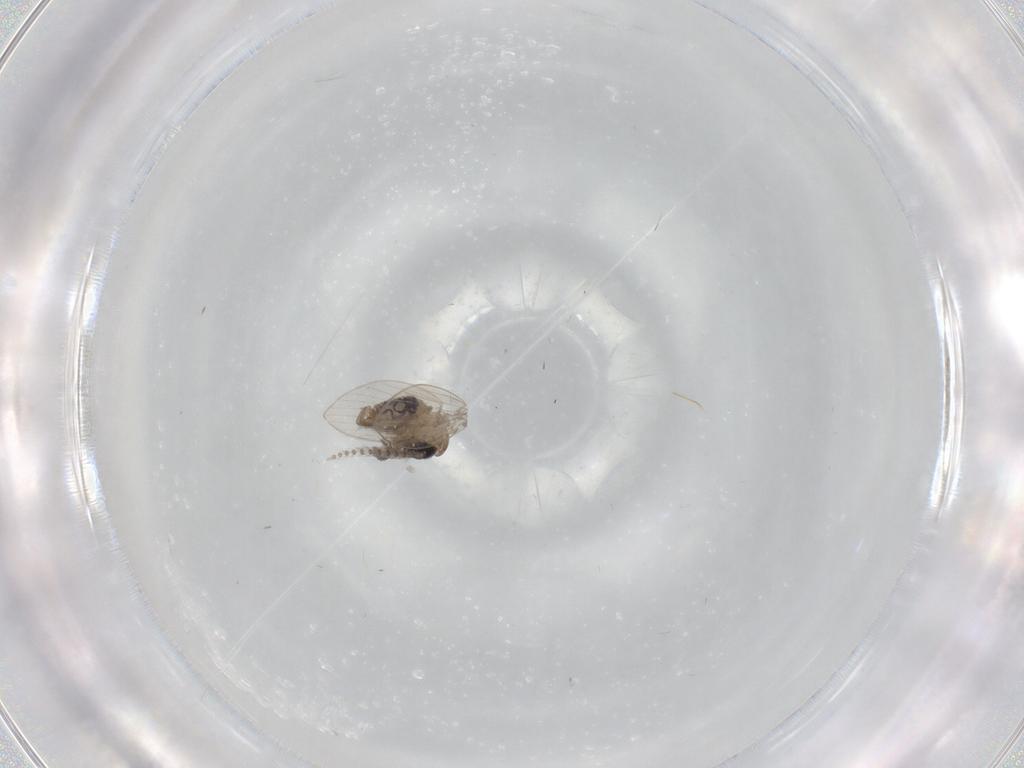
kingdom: Animalia
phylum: Arthropoda
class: Insecta
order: Diptera
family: Psychodidae
